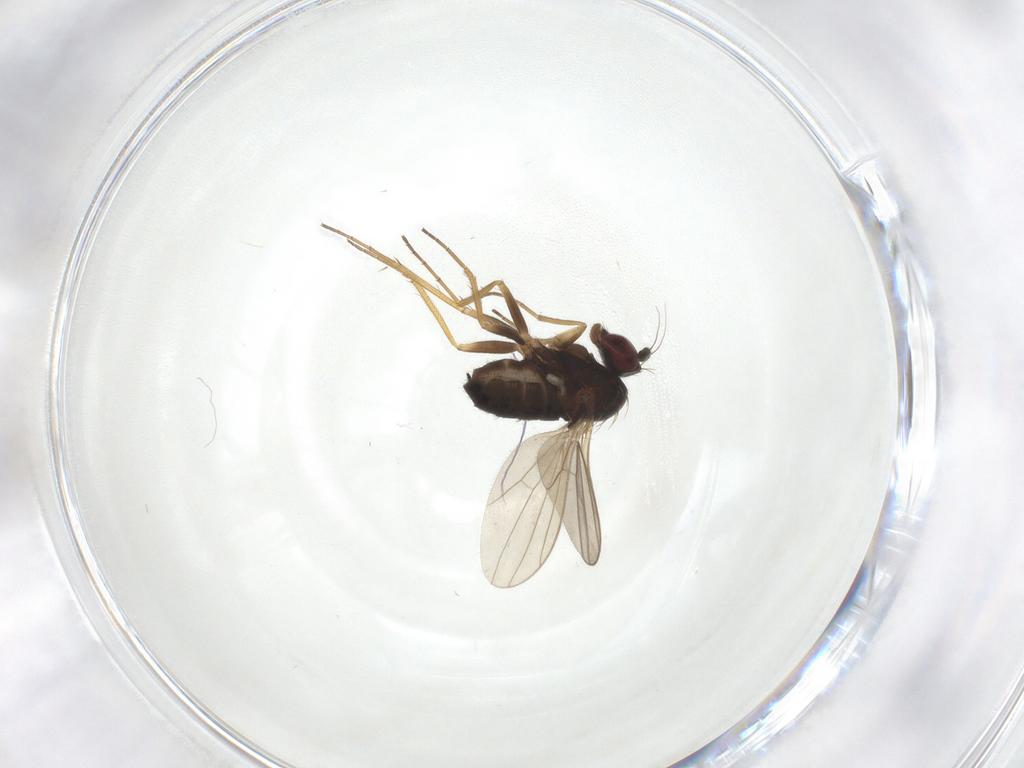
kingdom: Animalia
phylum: Arthropoda
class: Insecta
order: Diptera
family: Dolichopodidae
